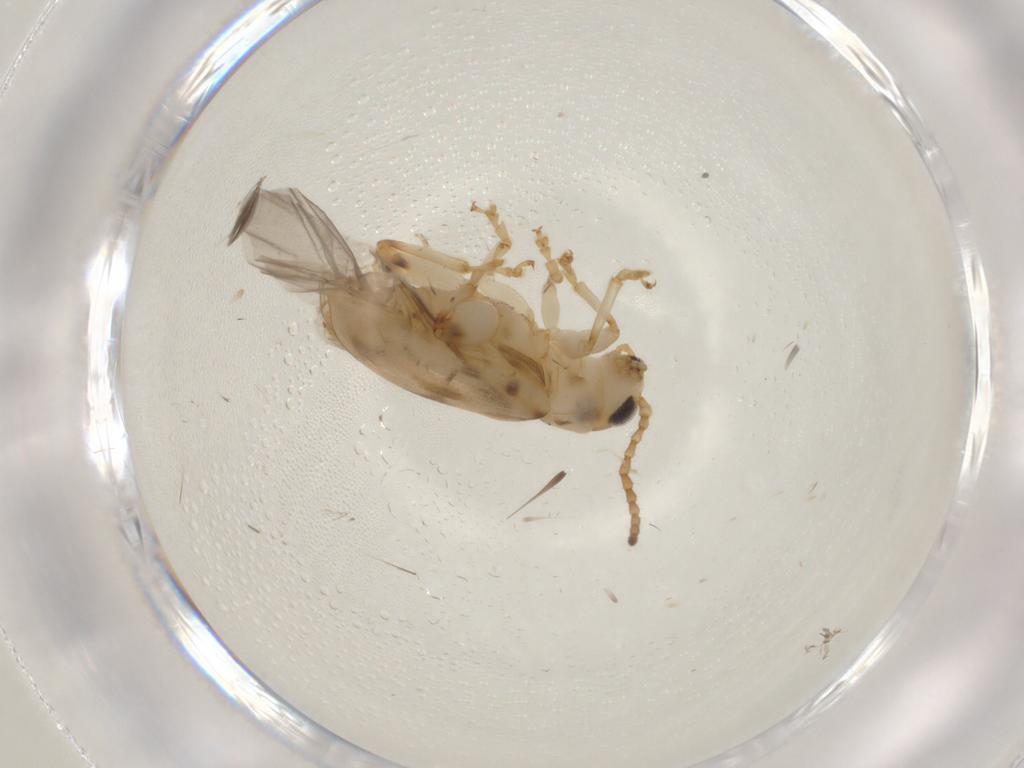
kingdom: Animalia
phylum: Arthropoda
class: Insecta
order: Coleoptera
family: Chrysomelidae
